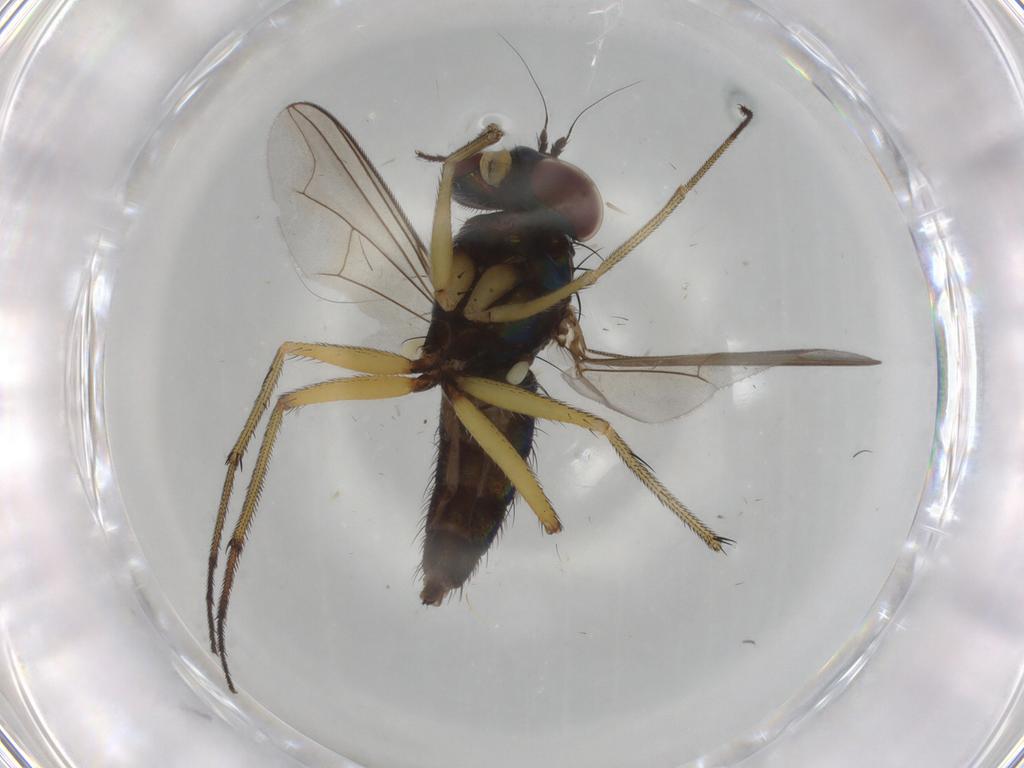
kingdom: Animalia
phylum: Arthropoda
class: Insecta
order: Diptera
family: Dolichopodidae
